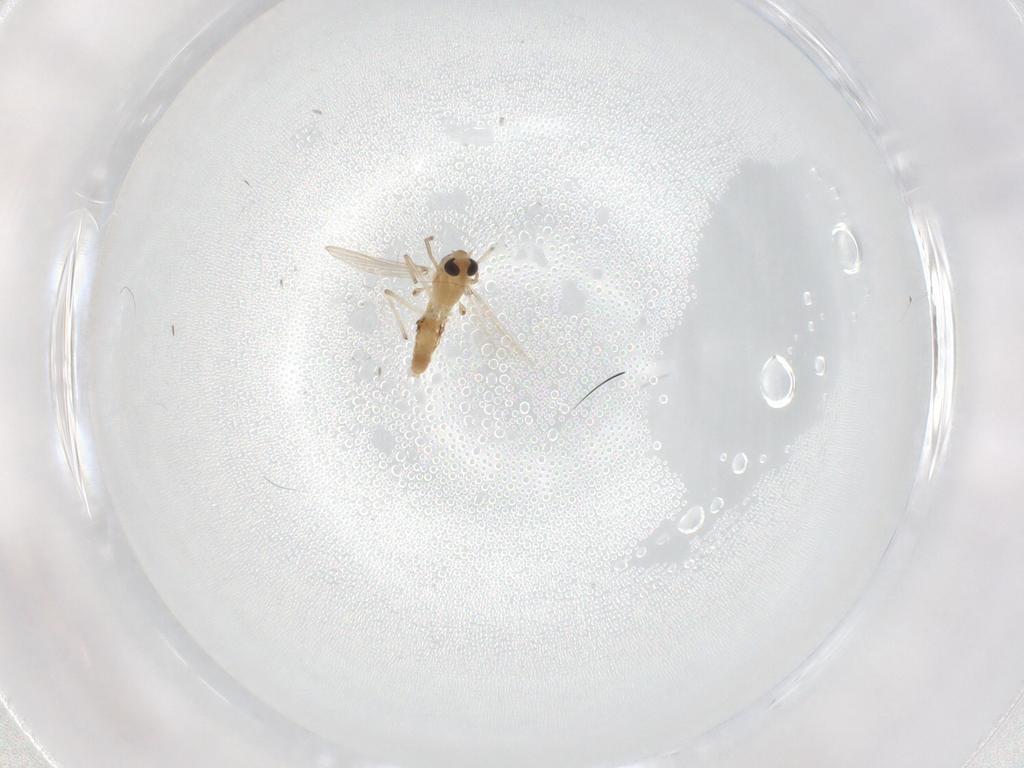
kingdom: Animalia
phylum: Arthropoda
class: Insecta
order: Diptera
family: Chironomidae
